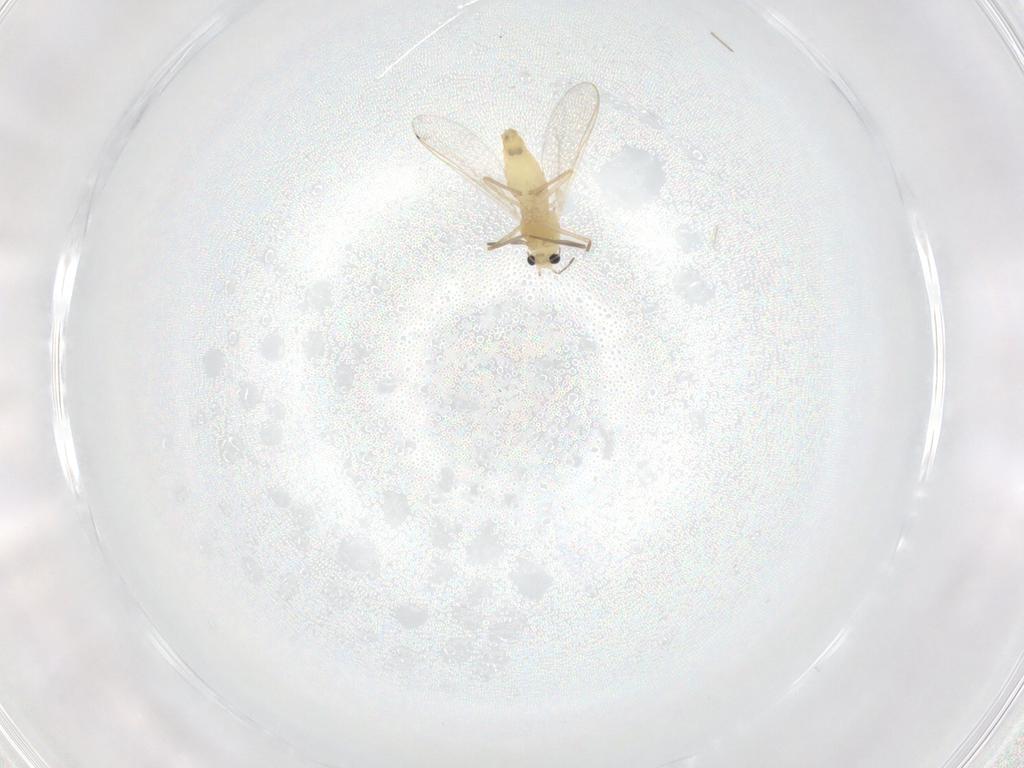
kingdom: Animalia
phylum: Arthropoda
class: Insecta
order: Diptera
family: Chironomidae
